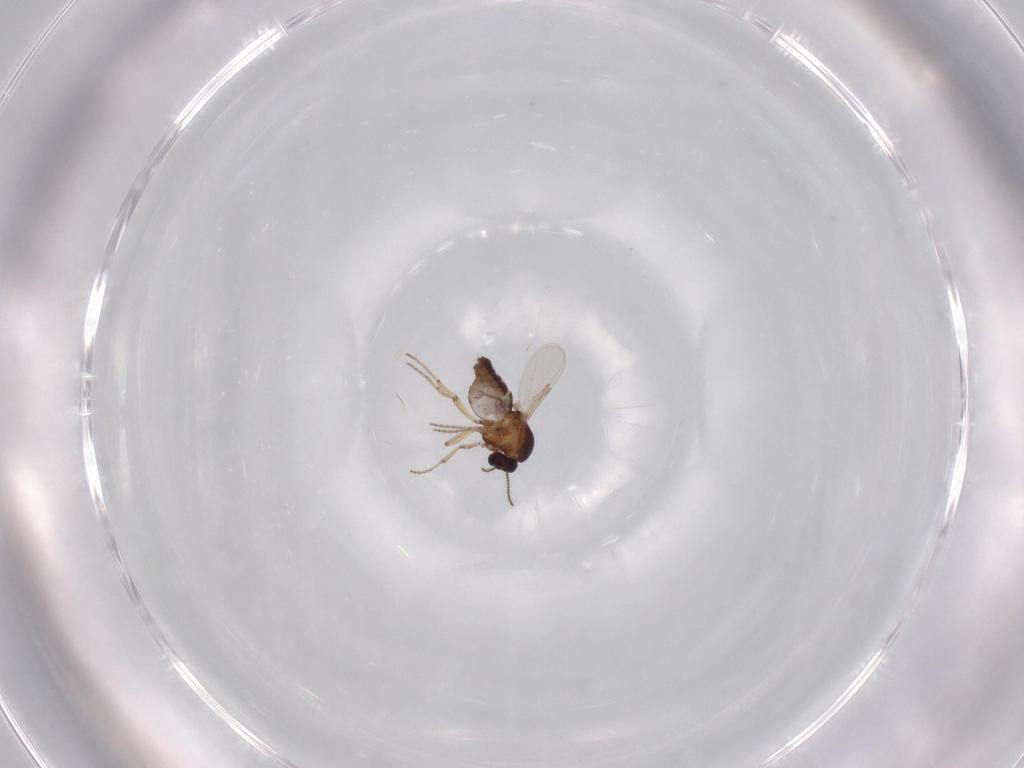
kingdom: Animalia
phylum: Arthropoda
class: Insecta
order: Diptera
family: Ceratopogonidae
